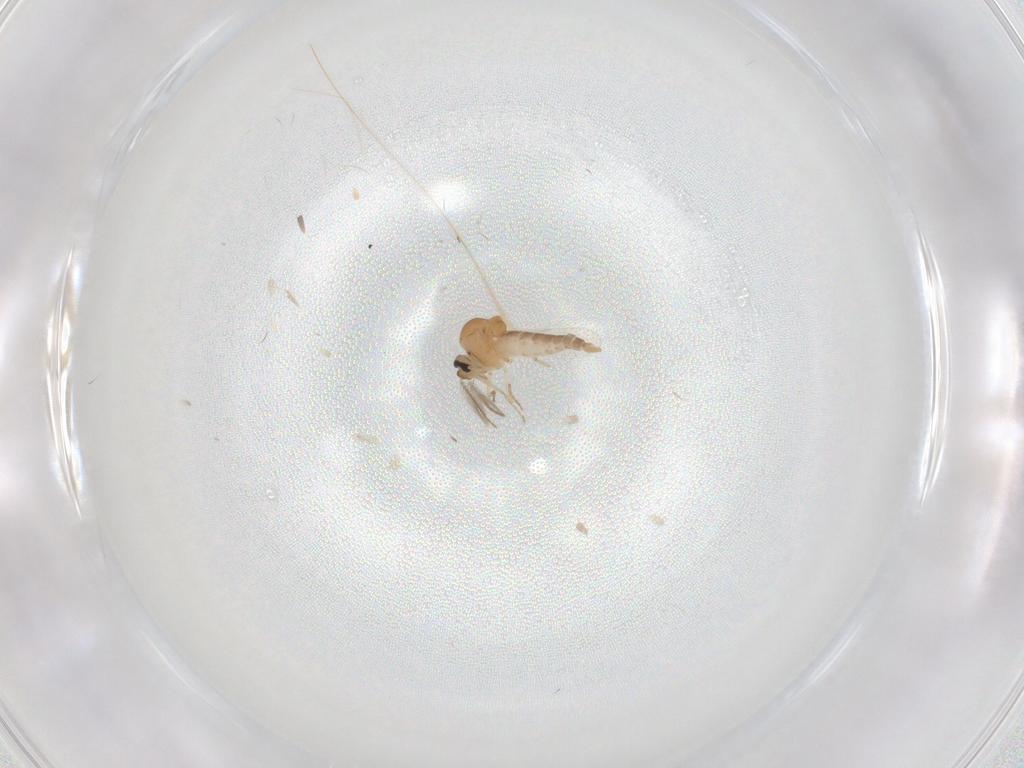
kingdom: Animalia
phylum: Arthropoda
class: Insecta
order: Diptera
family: Ceratopogonidae
